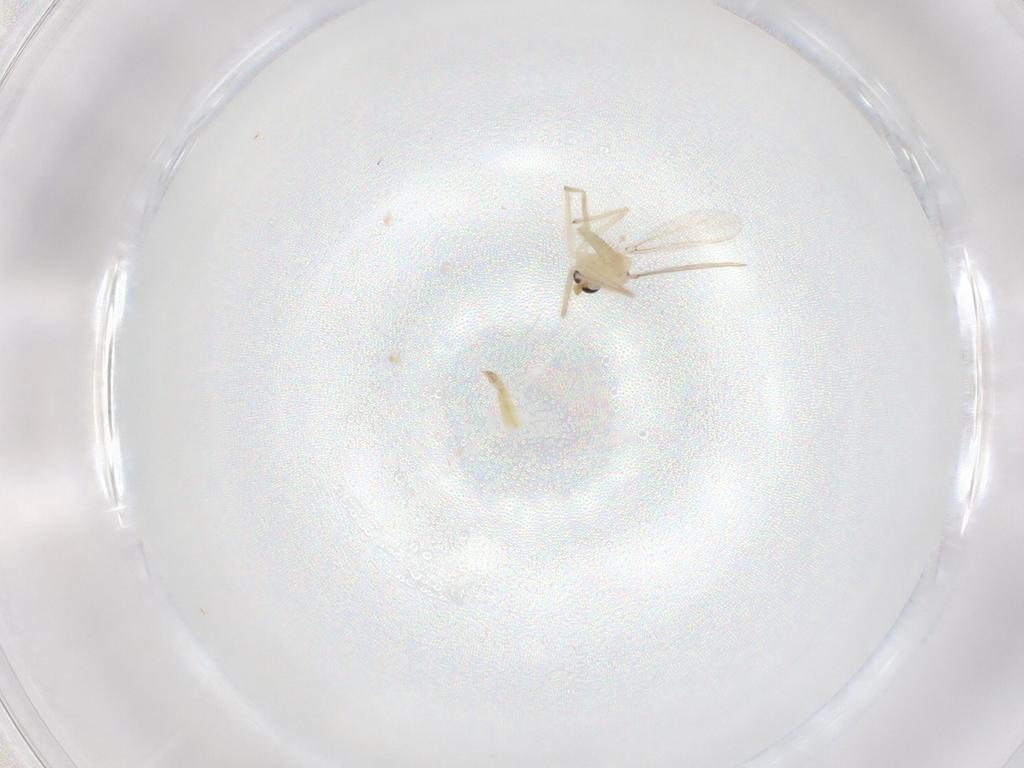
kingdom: Animalia
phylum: Arthropoda
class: Insecta
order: Diptera
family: Chironomidae
